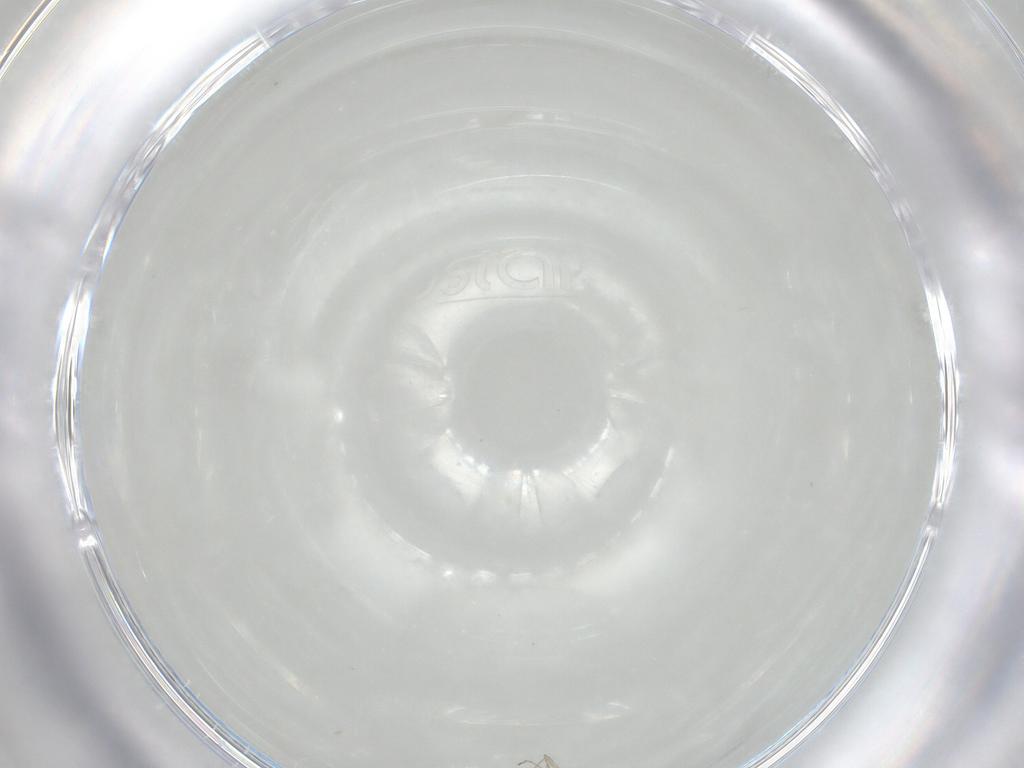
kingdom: Animalia
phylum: Arthropoda
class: Insecta
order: Diptera
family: Cecidomyiidae
